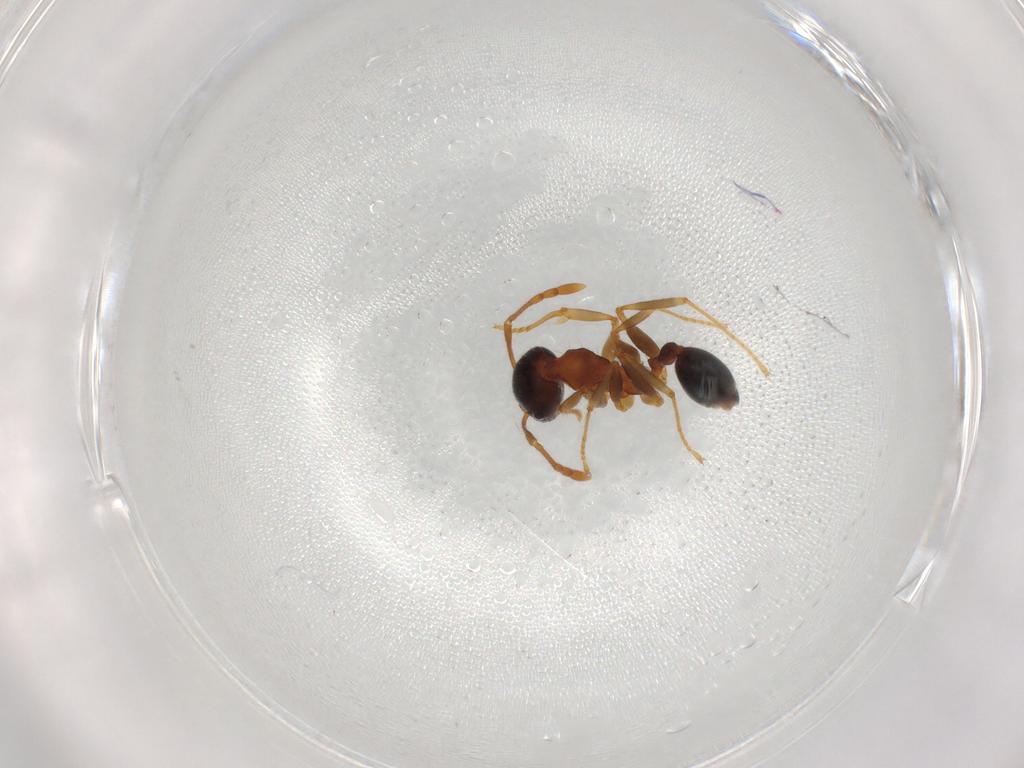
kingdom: Animalia
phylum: Arthropoda
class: Insecta
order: Hymenoptera
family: Formicidae
